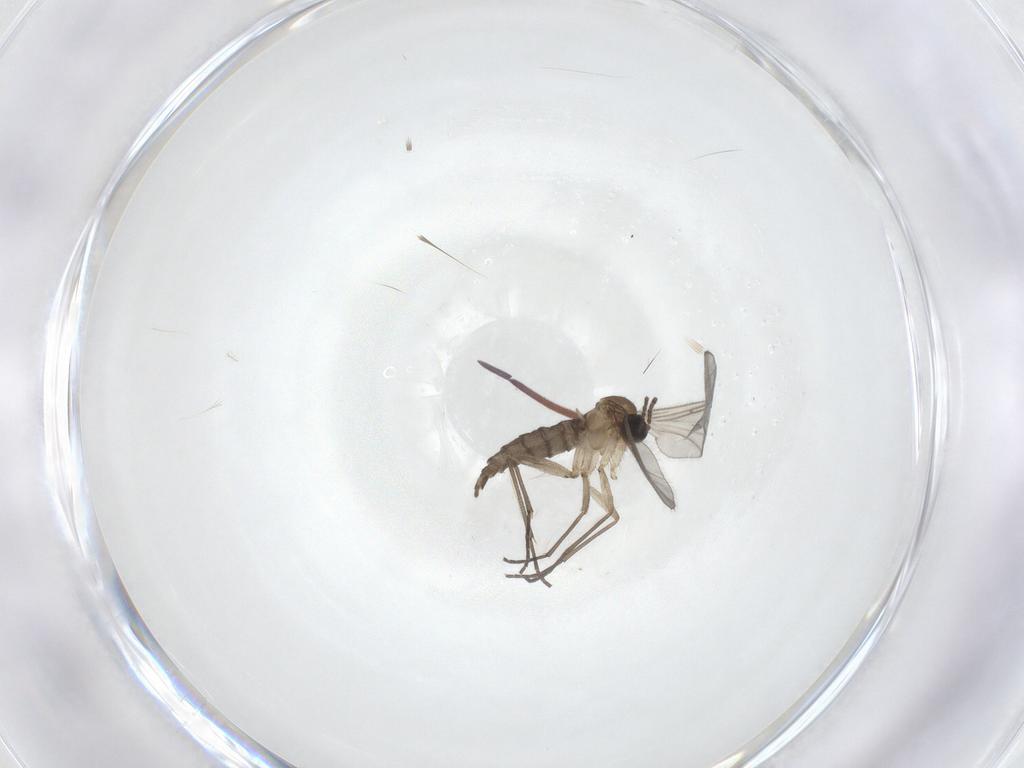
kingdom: Animalia
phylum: Arthropoda
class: Insecta
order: Diptera
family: Sciaridae
